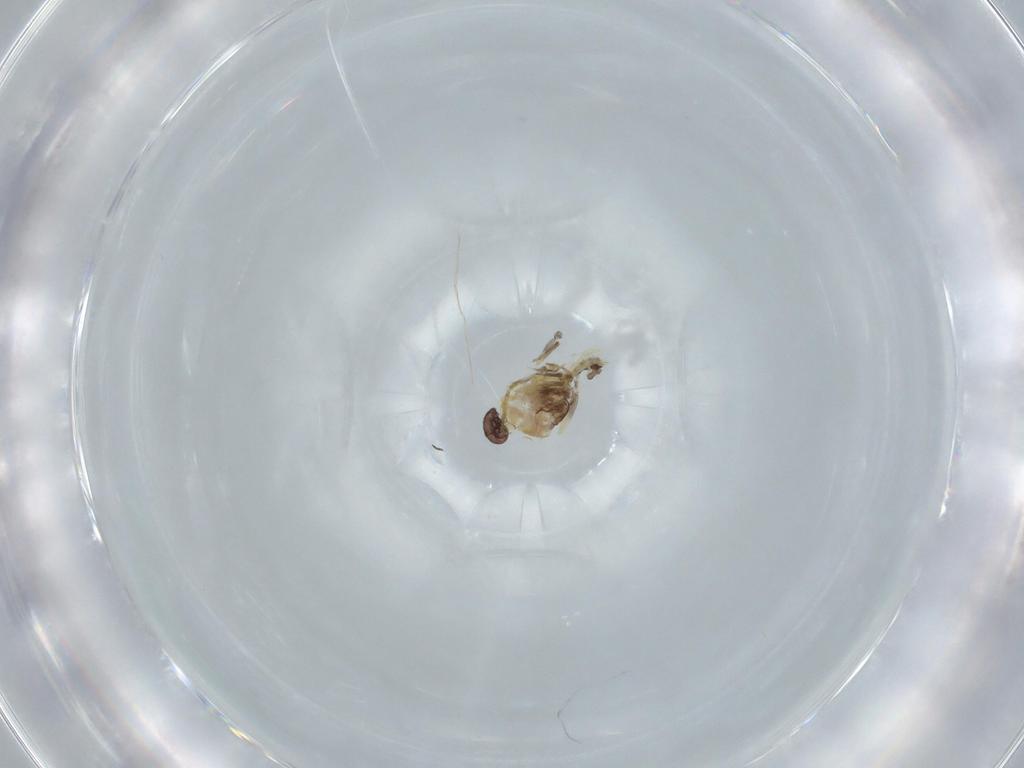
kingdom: Animalia
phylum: Arthropoda
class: Insecta
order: Diptera
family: Ceratopogonidae
